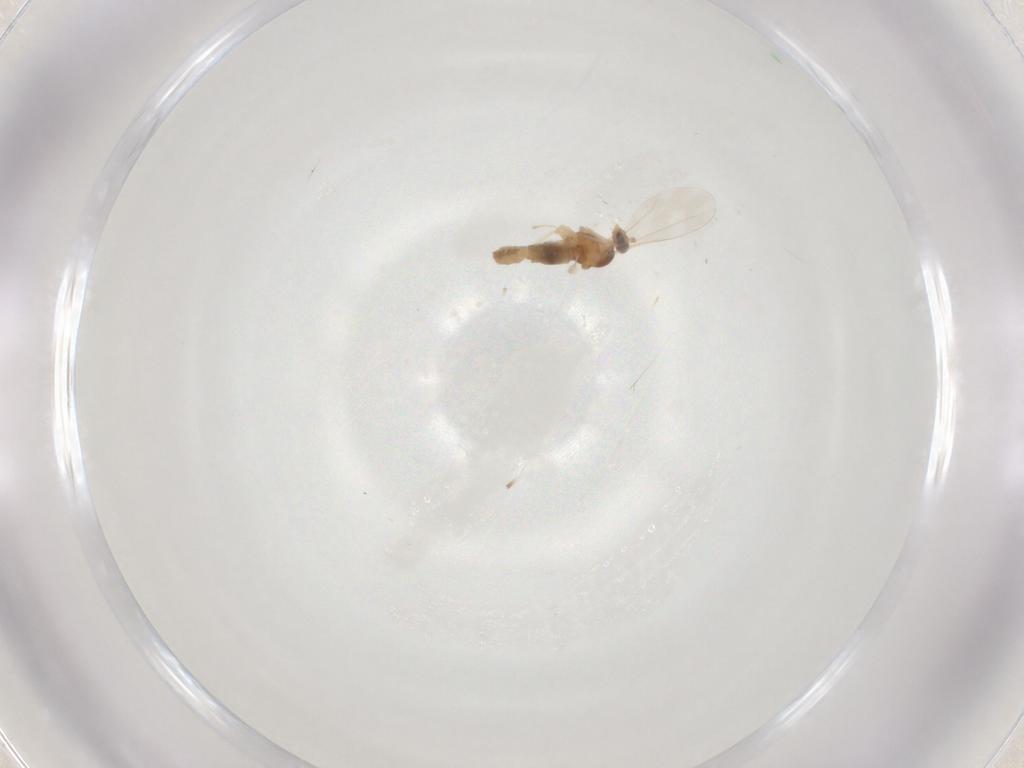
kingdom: Animalia
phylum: Arthropoda
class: Insecta
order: Diptera
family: Cecidomyiidae
